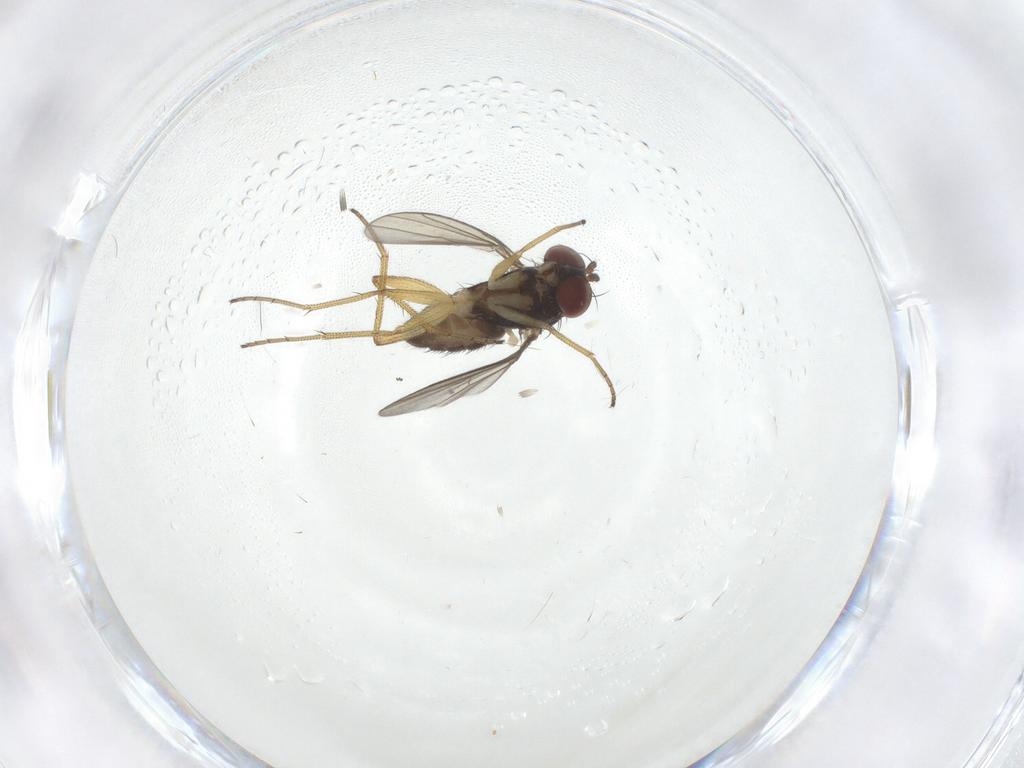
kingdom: Animalia
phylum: Arthropoda
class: Insecta
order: Diptera
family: Dolichopodidae
